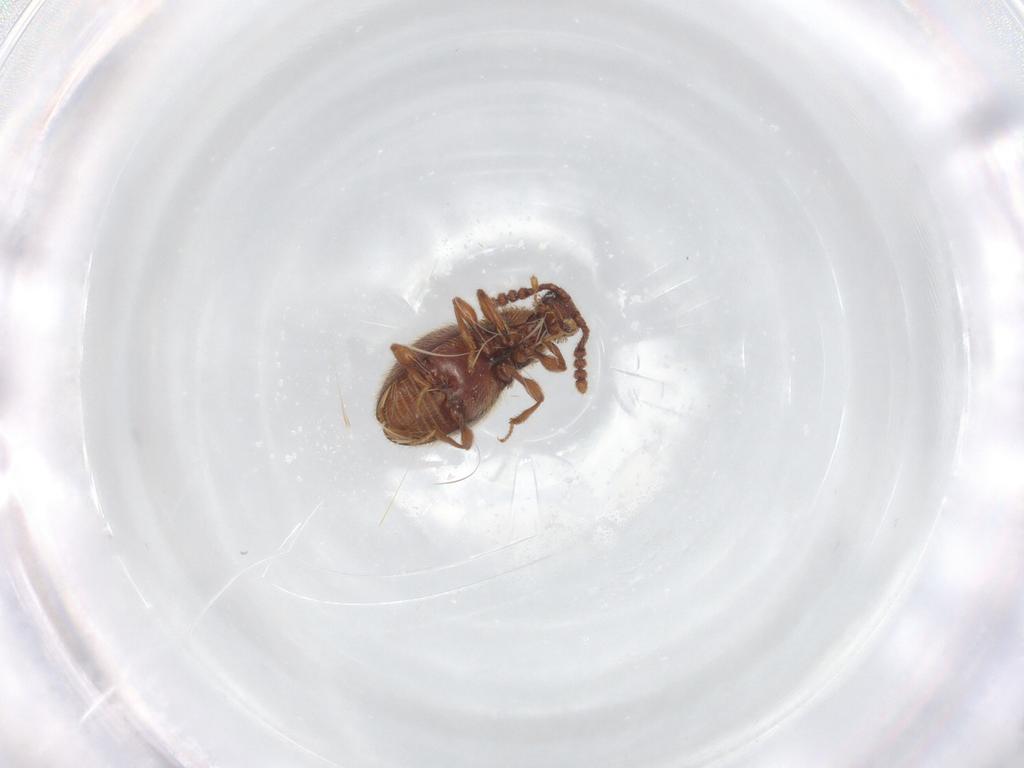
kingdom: Animalia
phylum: Arthropoda
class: Insecta
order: Coleoptera
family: Staphylinidae
